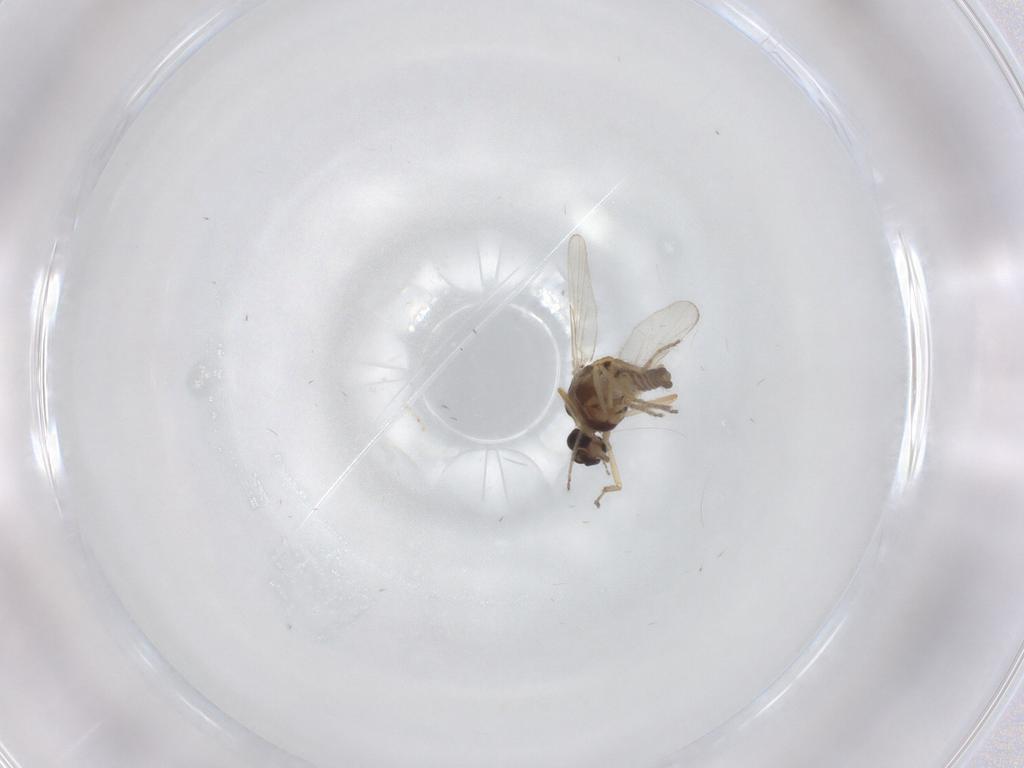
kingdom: Animalia
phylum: Arthropoda
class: Insecta
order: Diptera
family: Ceratopogonidae
